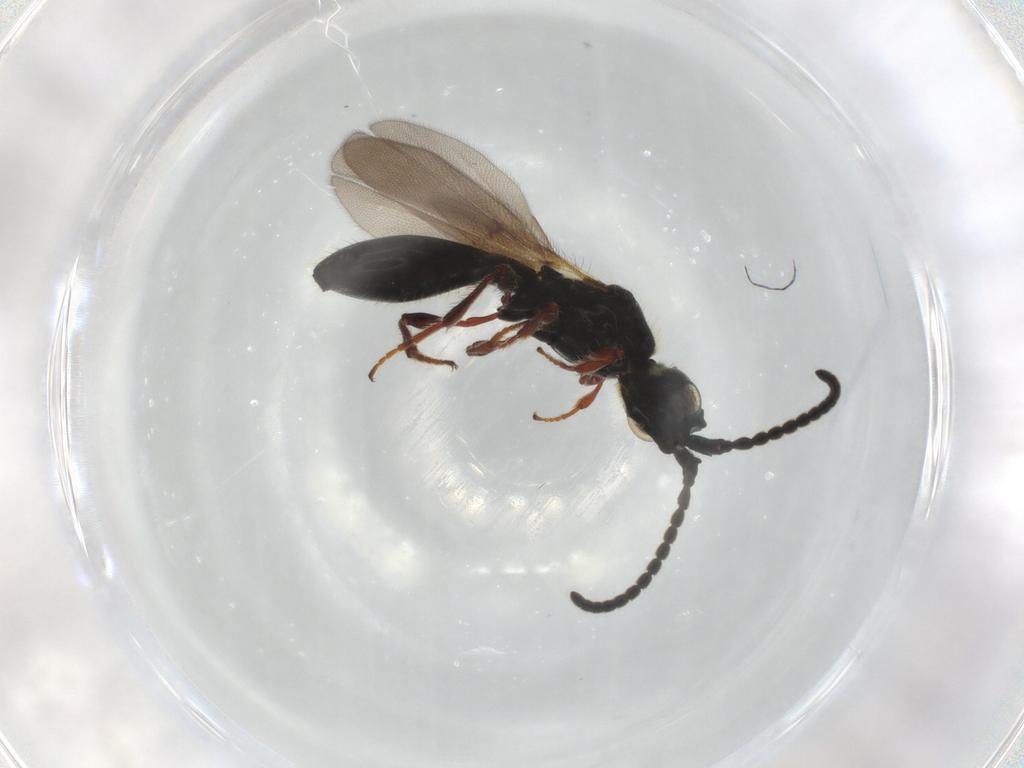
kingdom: Animalia
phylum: Arthropoda
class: Insecta
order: Hymenoptera
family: Diapriidae
